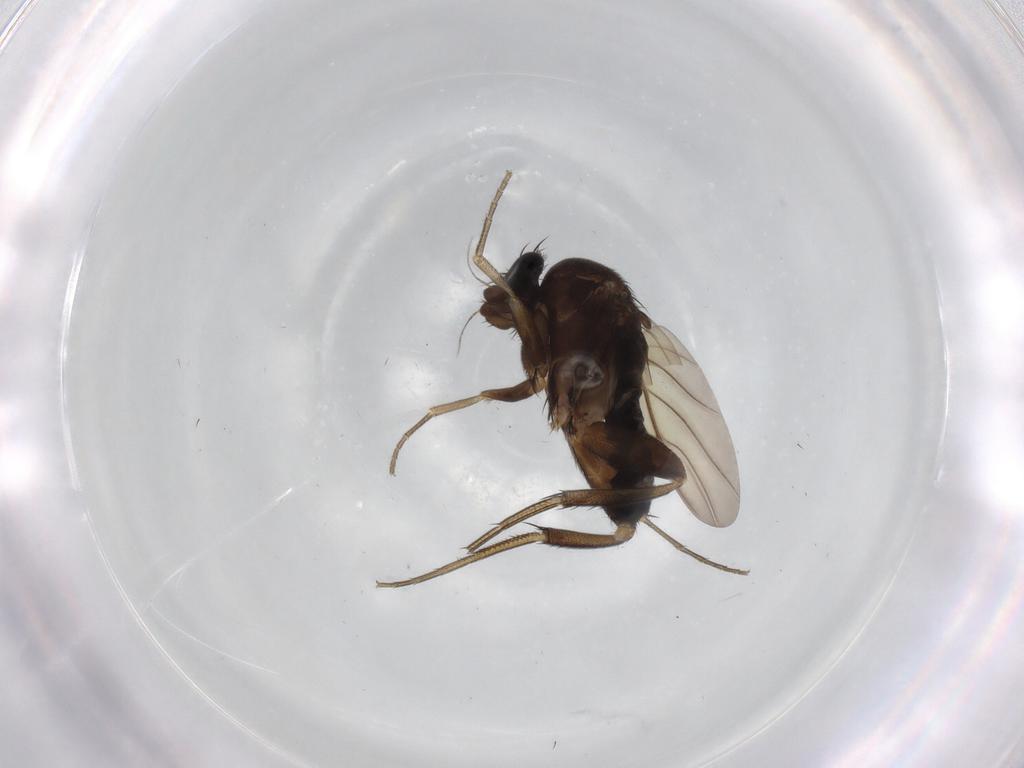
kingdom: Animalia
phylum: Arthropoda
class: Insecta
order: Diptera
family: Phoridae
